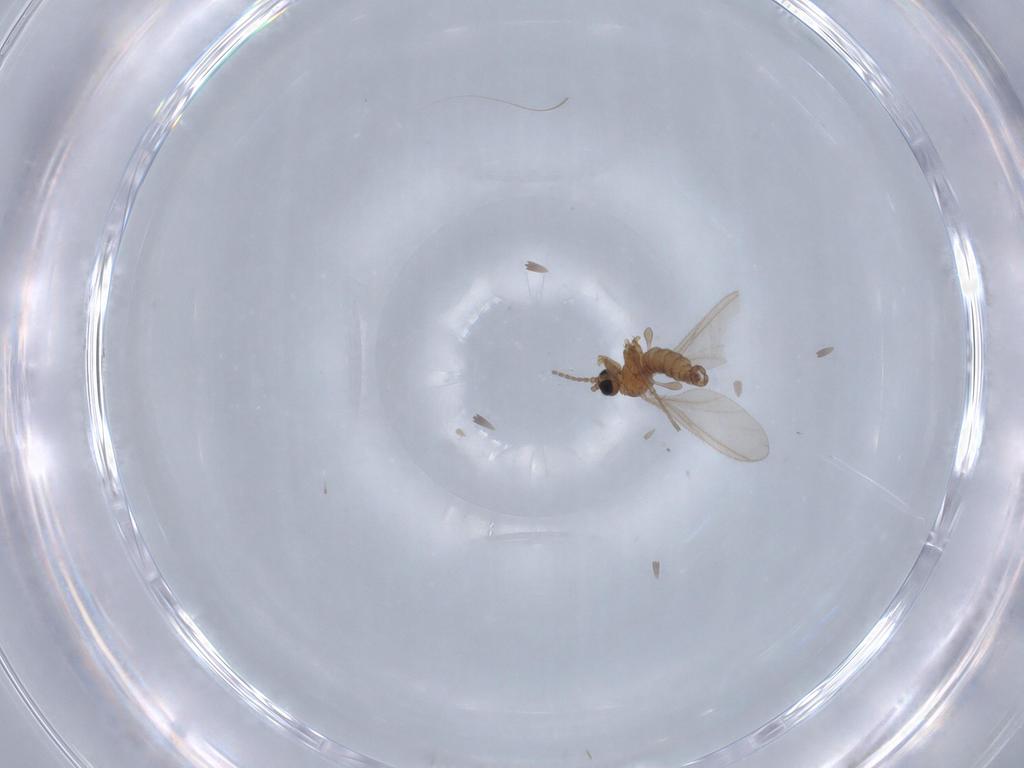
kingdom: Animalia
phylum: Arthropoda
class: Insecta
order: Diptera
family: Sciaridae
